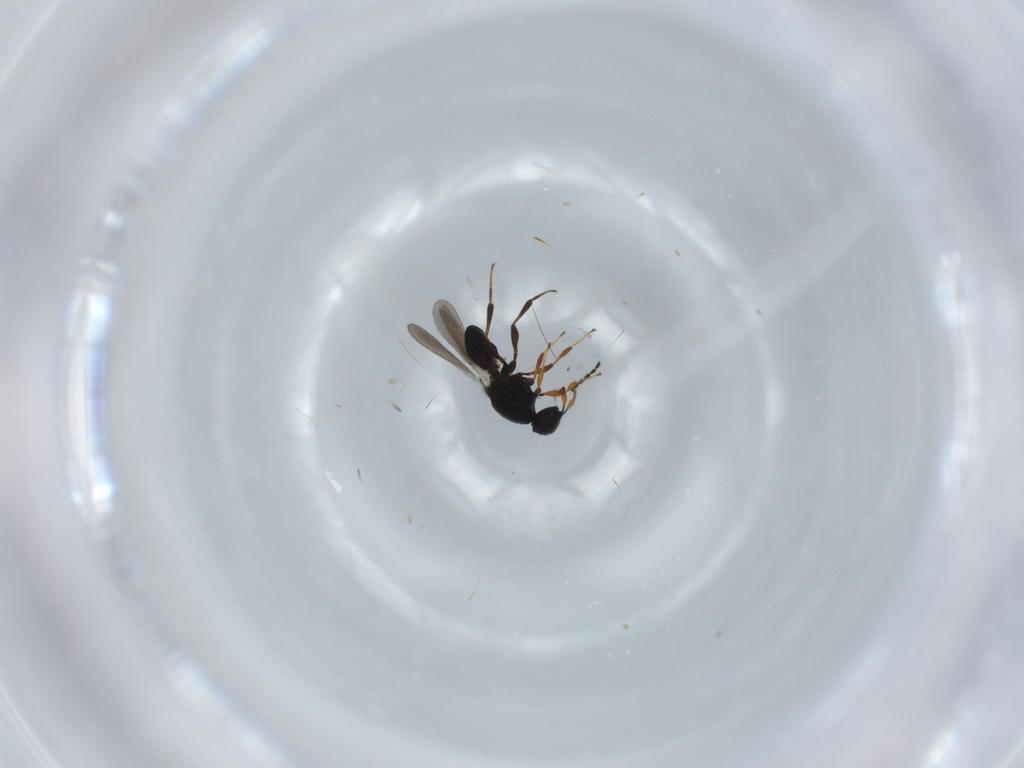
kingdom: Animalia
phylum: Arthropoda
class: Insecta
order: Hymenoptera
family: Platygastridae
